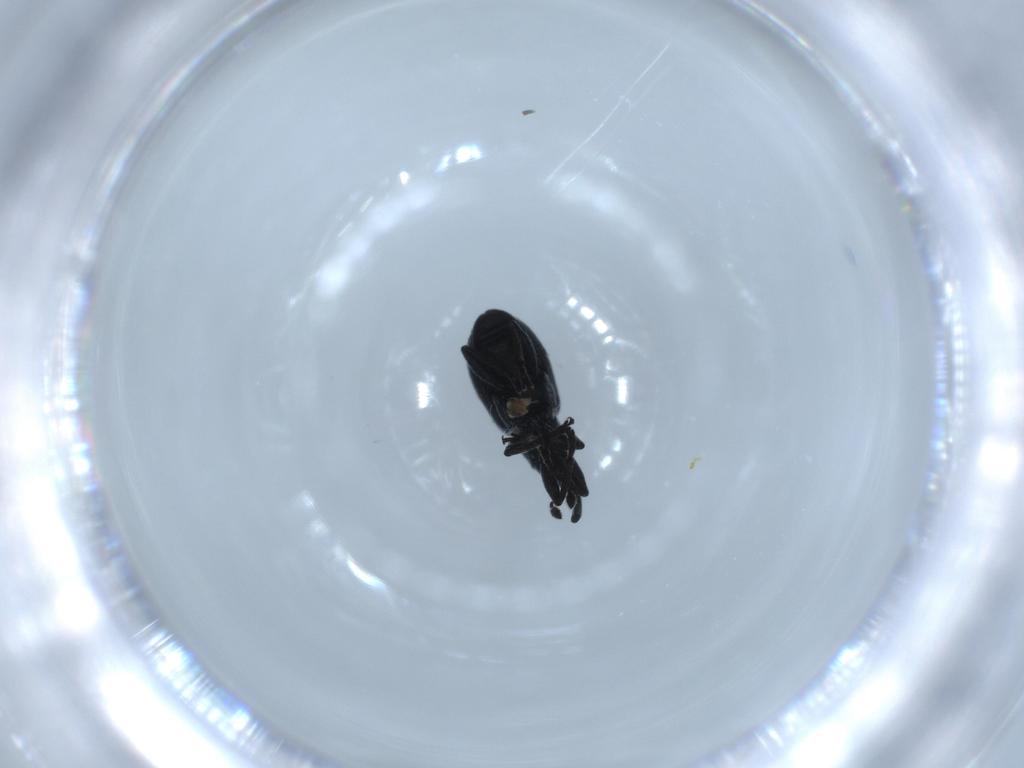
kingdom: Animalia
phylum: Arthropoda
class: Insecta
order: Coleoptera
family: Brentidae
